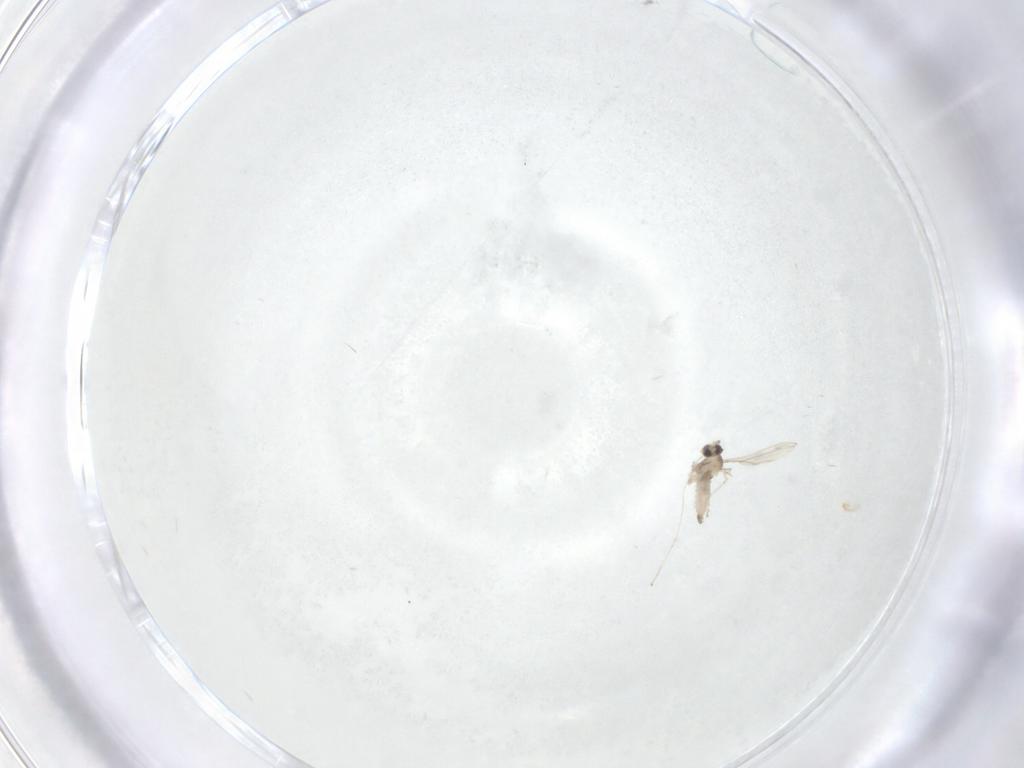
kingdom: Animalia
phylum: Arthropoda
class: Insecta
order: Diptera
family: Cecidomyiidae
